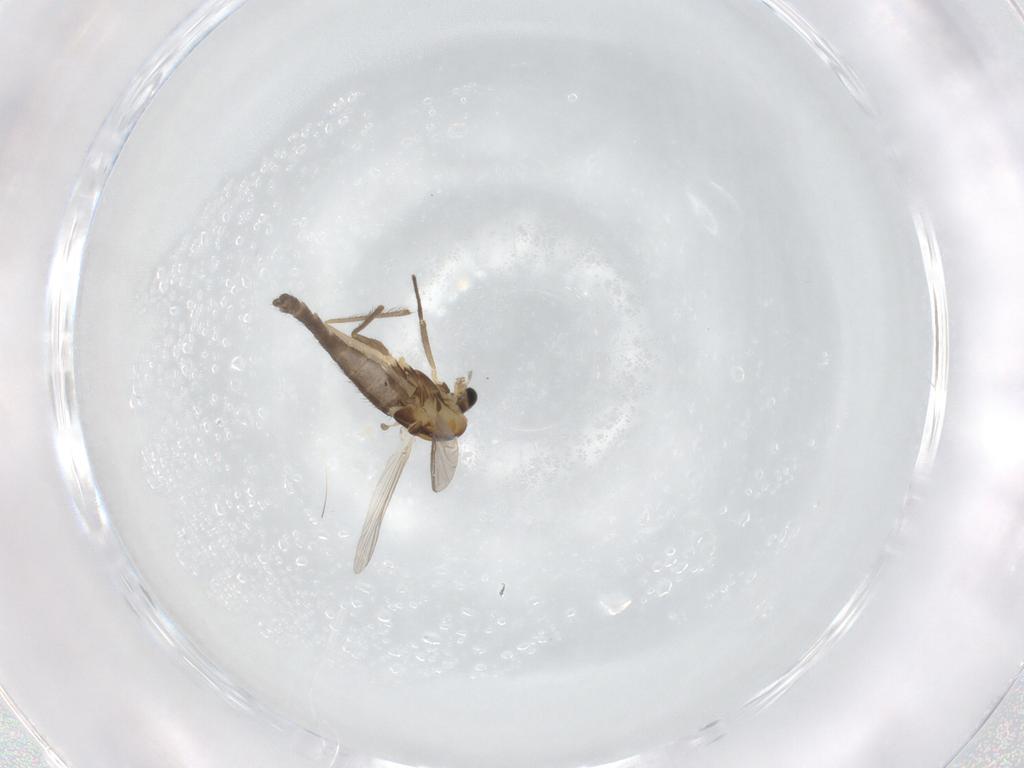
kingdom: Animalia
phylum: Arthropoda
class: Insecta
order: Diptera
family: Chironomidae
